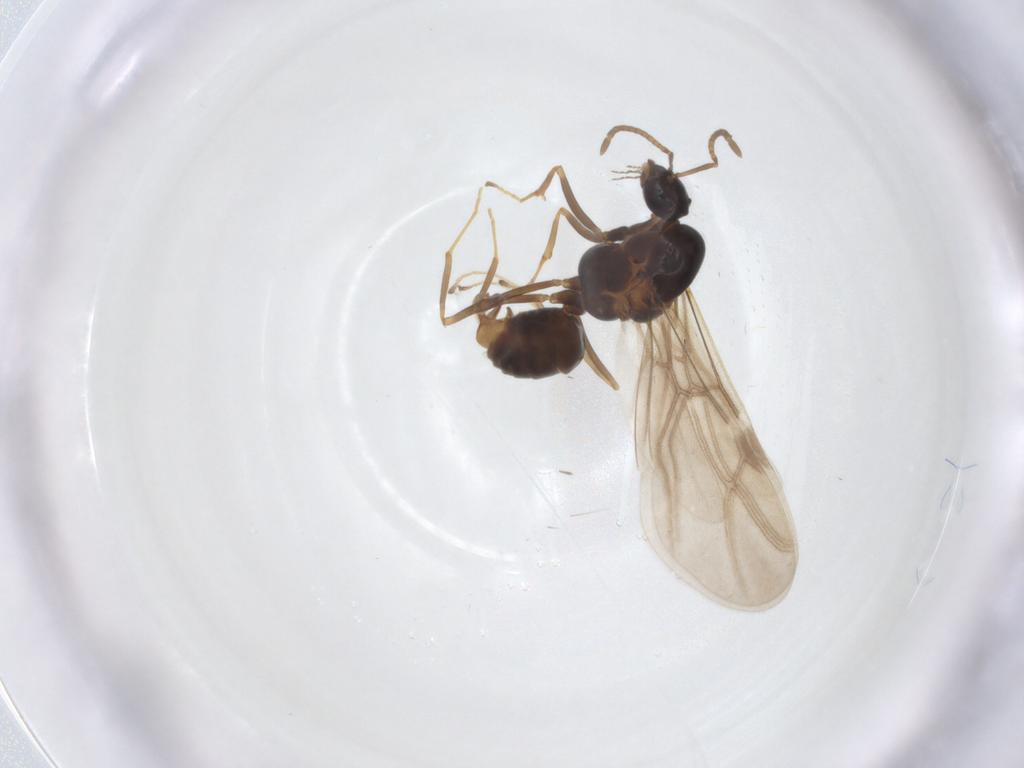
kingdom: Animalia
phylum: Arthropoda
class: Insecta
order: Hymenoptera
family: Formicidae
